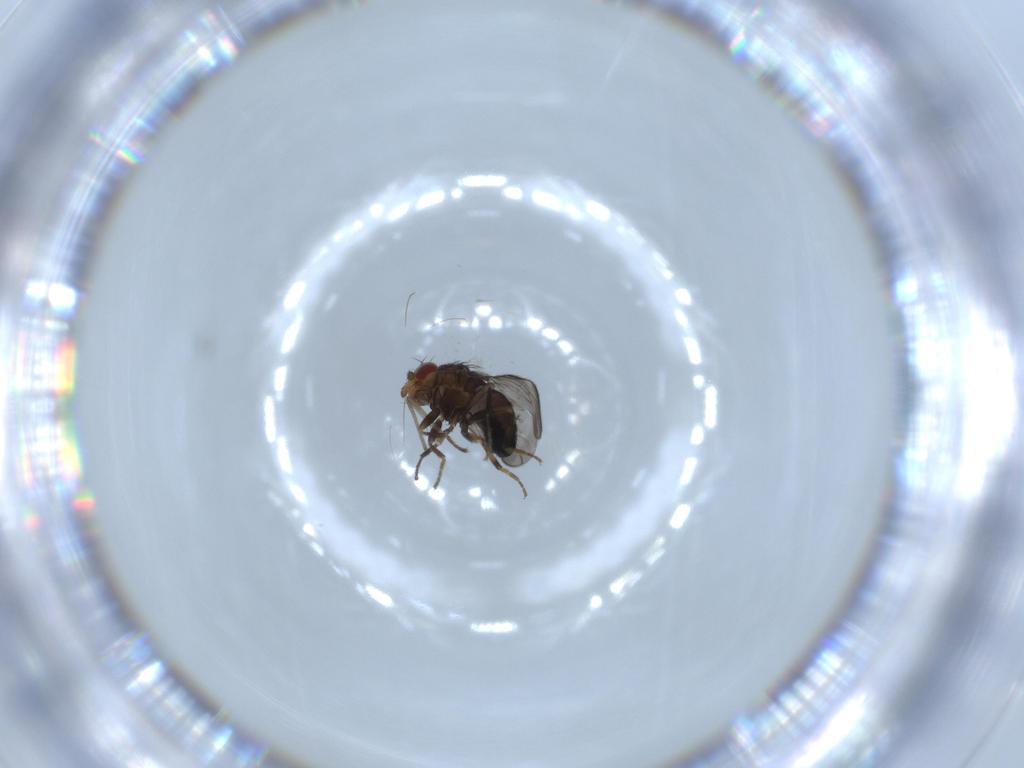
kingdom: Animalia
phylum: Arthropoda
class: Insecta
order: Diptera
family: Sphaeroceridae
